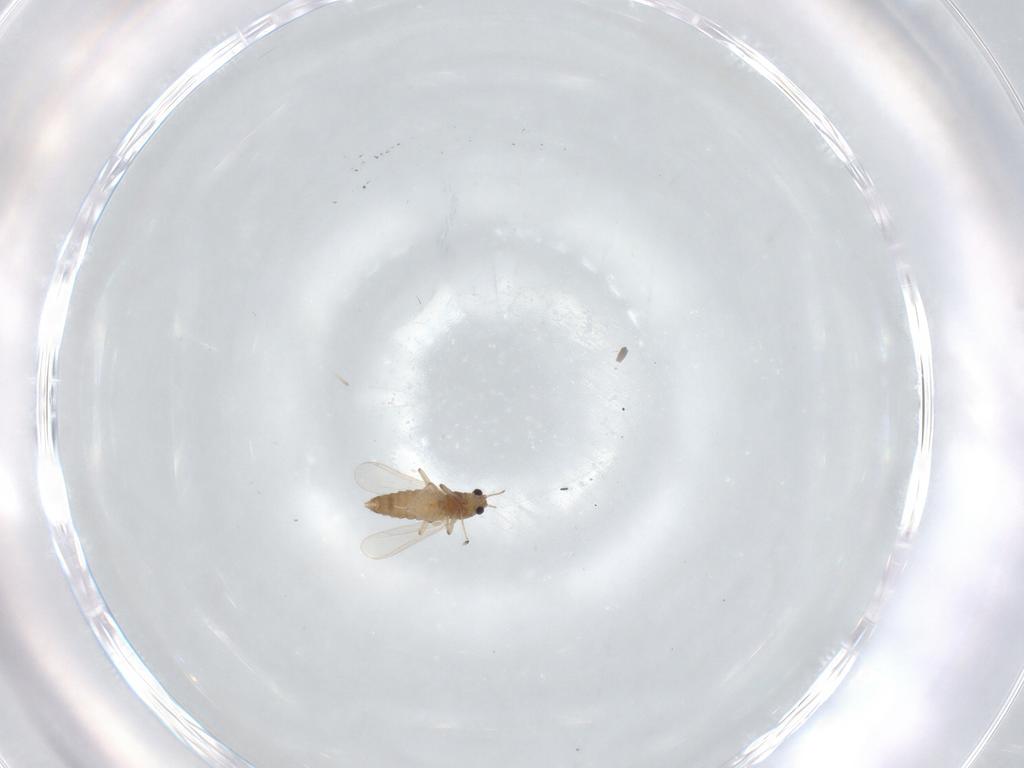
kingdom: Animalia
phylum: Arthropoda
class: Insecta
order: Diptera
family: Chironomidae
